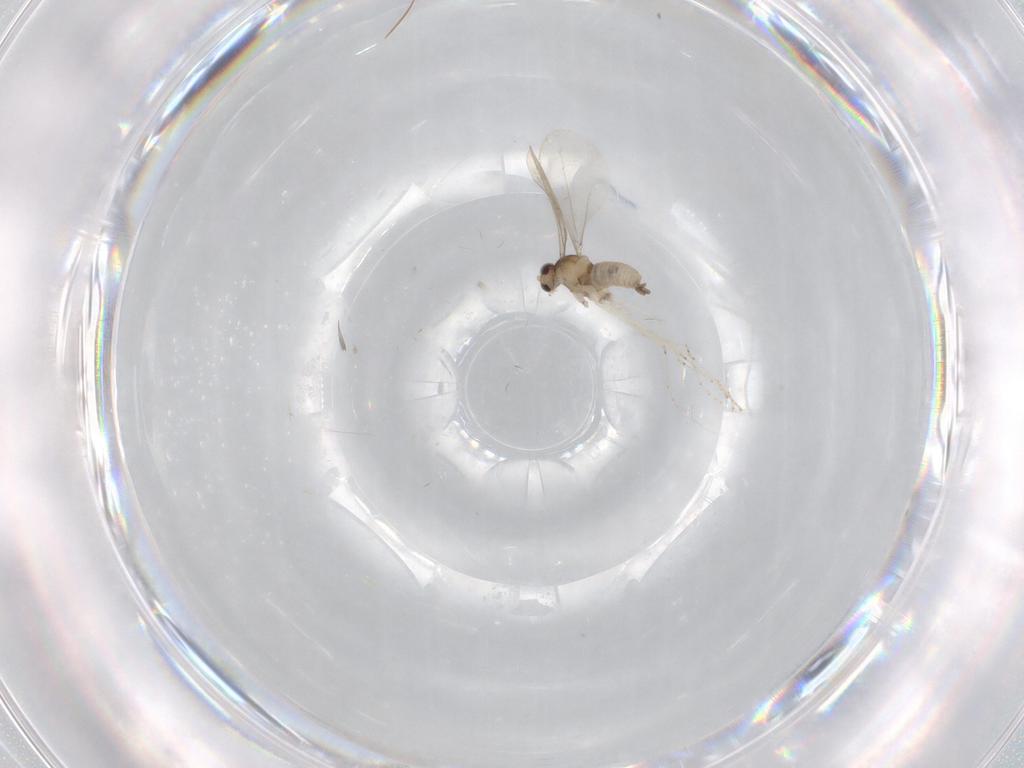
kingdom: Animalia
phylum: Arthropoda
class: Insecta
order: Diptera
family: Cecidomyiidae
